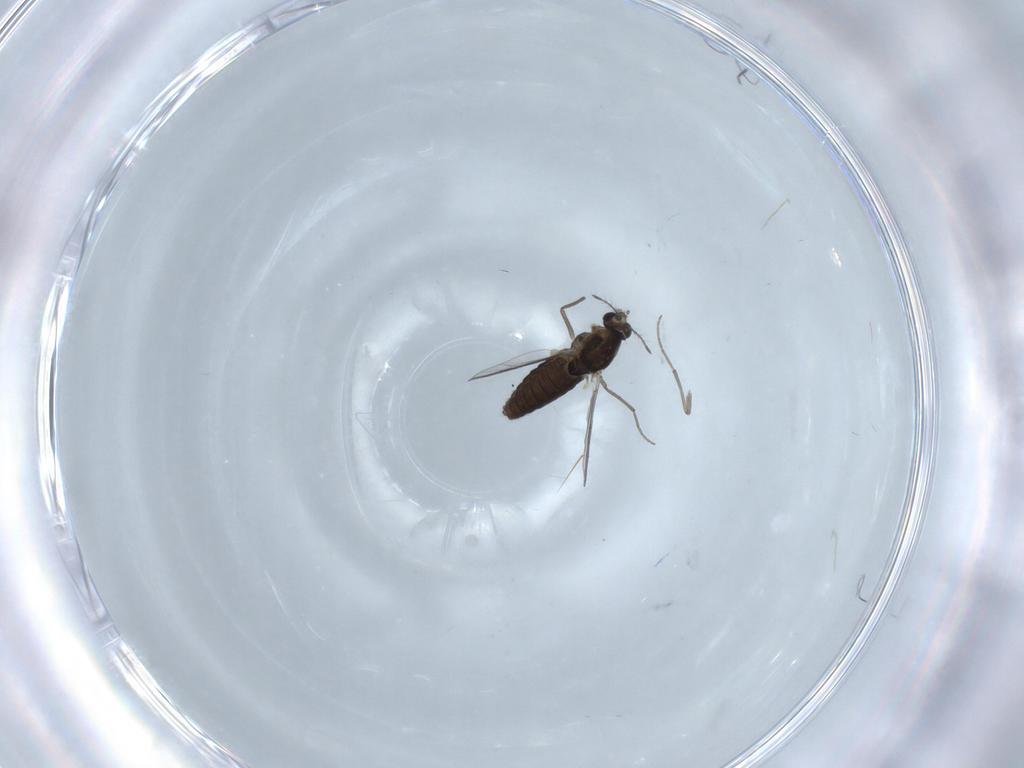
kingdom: Animalia
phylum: Arthropoda
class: Insecta
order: Diptera
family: Chironomidae
